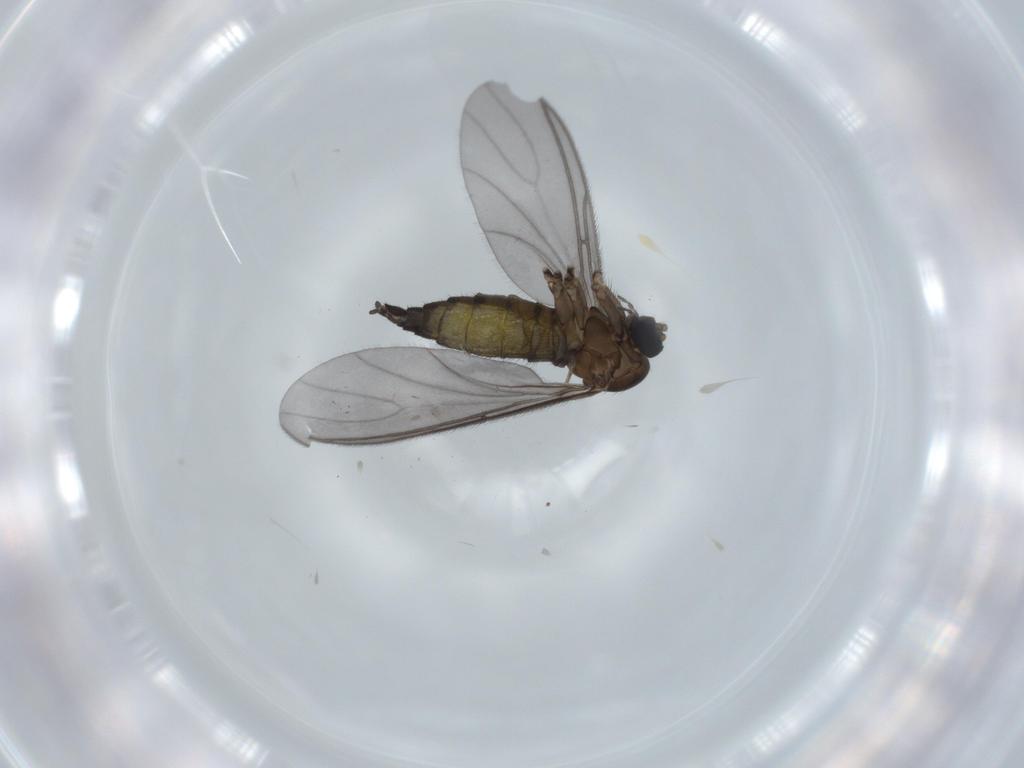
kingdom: Animalia
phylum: Arthropoda
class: Insecta
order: Diptera
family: Sciaridae
